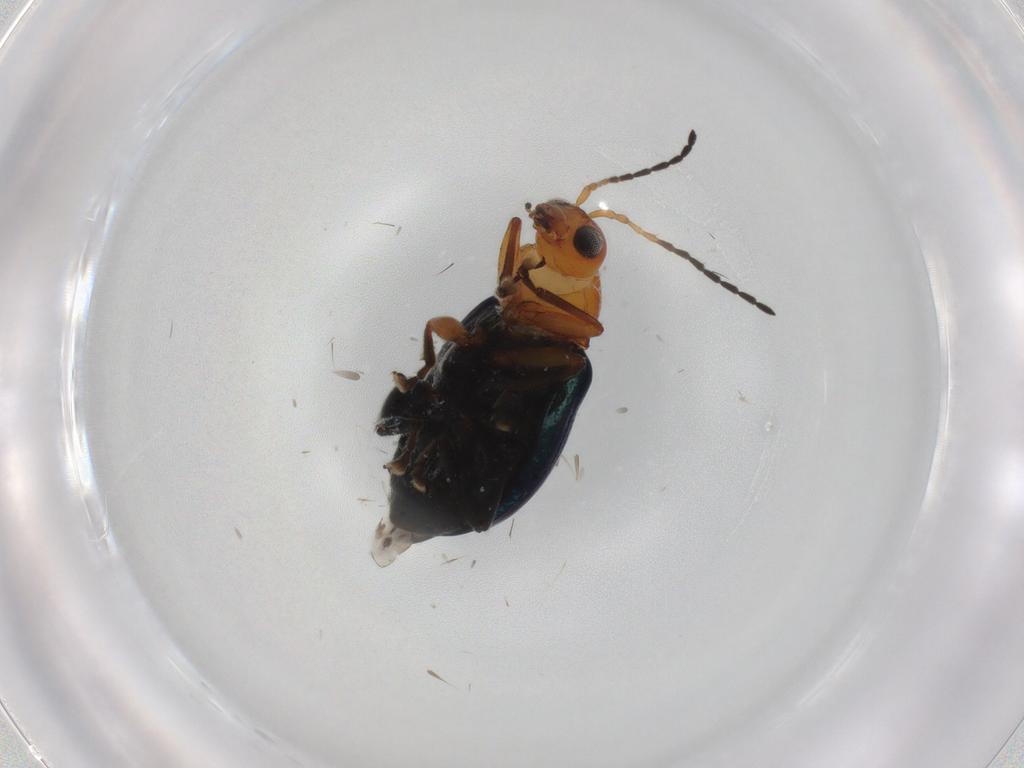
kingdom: Animalia
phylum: Arthropoda
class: Insecta
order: Coleoptera
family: Chrysomelidae
